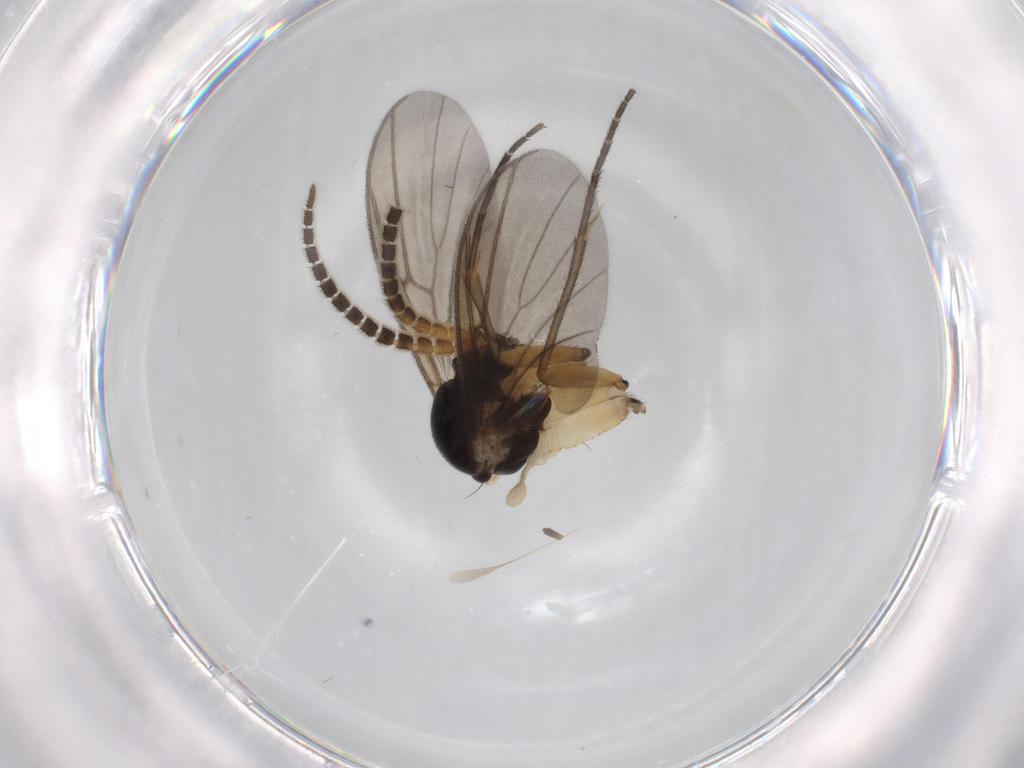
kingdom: Animalia
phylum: Arthropoda
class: Insecta
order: Diptera
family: Mycetophilidae
